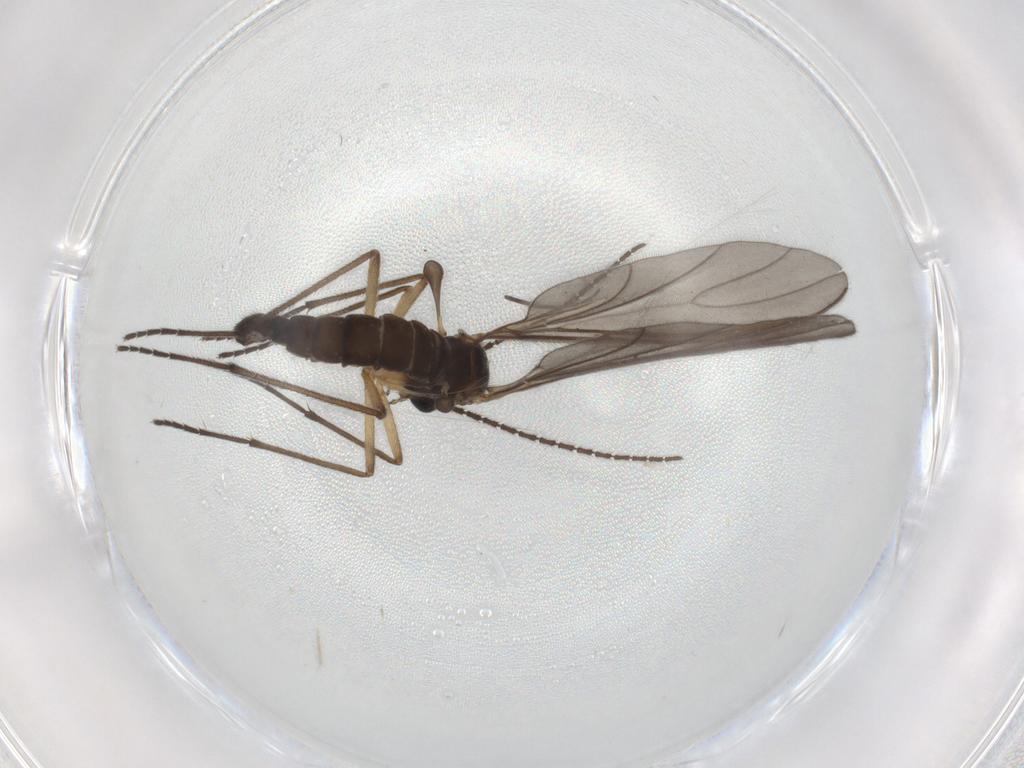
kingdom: Animalia
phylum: Arthropoda
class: Insecta
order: Diptera
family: Sciaridae
